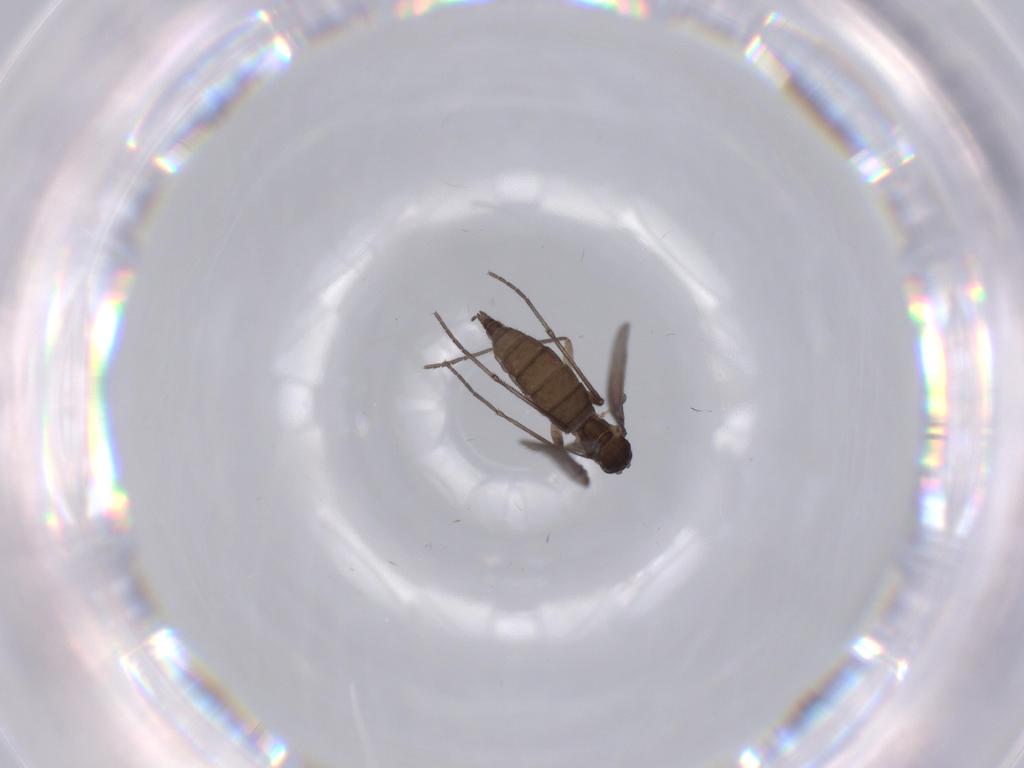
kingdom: Animalia
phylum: Arthropoda
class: Insecta
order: Diptera
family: Sciaridae
